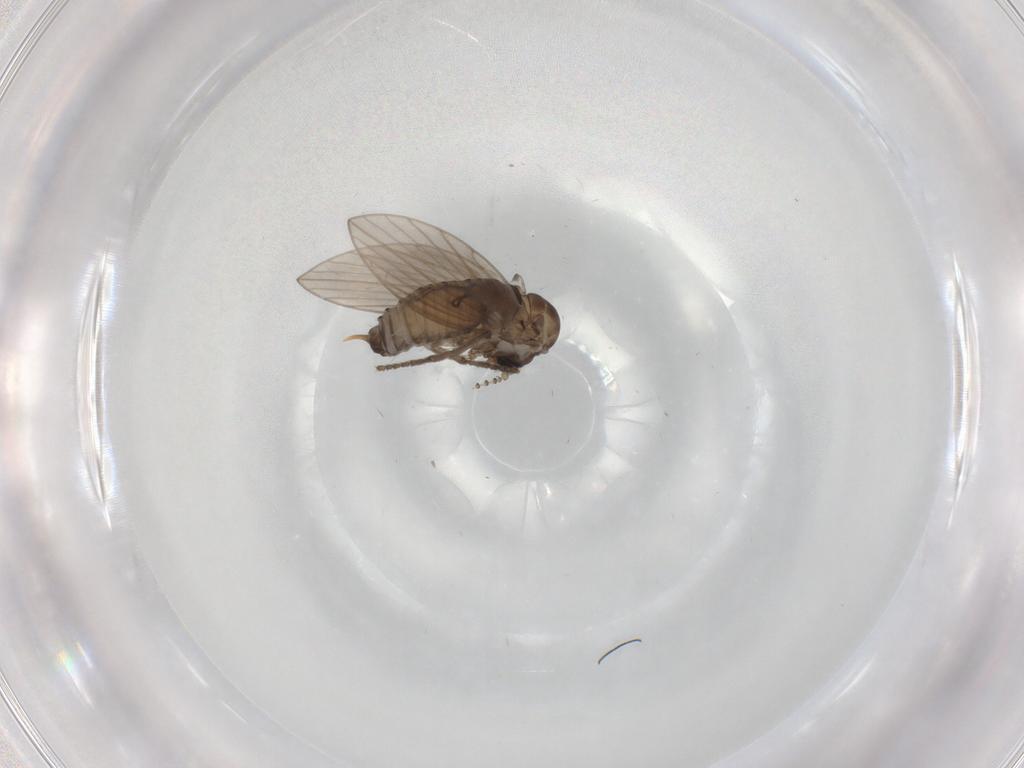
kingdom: Animalia
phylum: Arthropoda
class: Insecta
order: Diptera
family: Psychodidae
